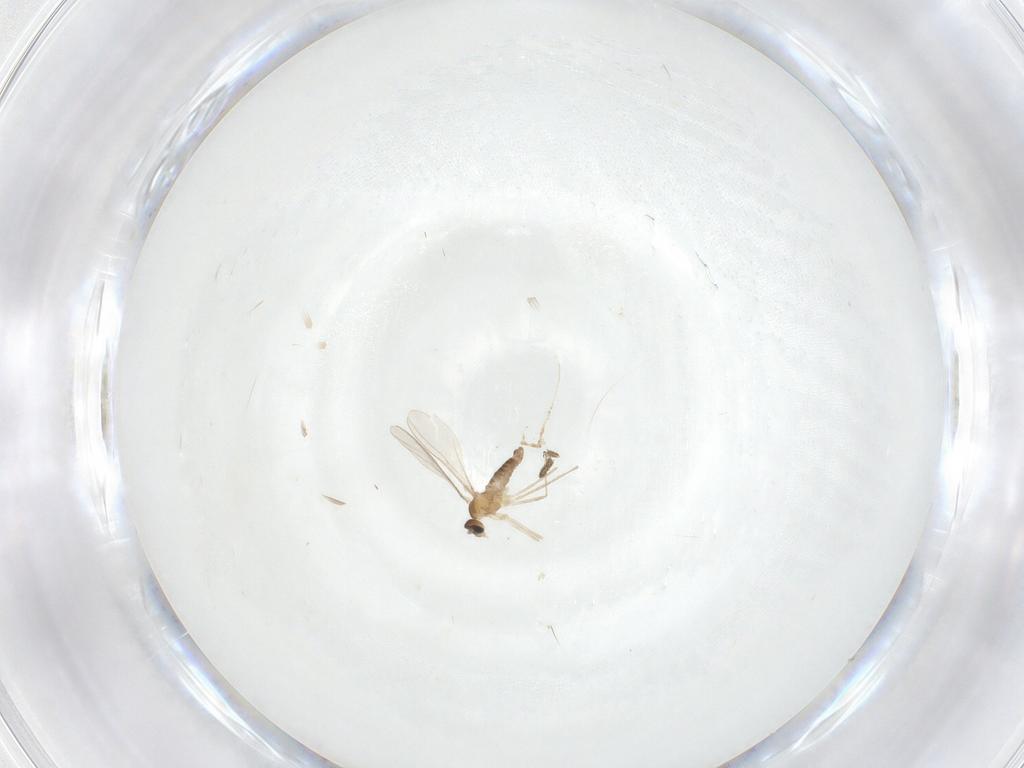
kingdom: Animalia
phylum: Arthropoda
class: Insecta
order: Diptera
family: Cecidomyiidae
